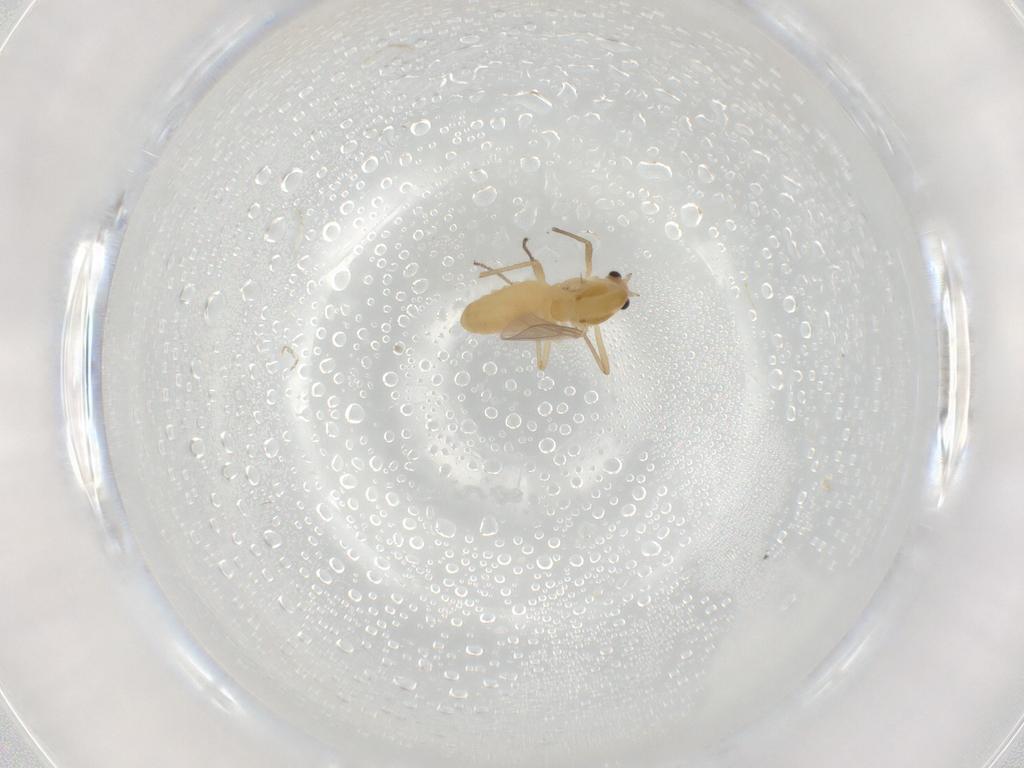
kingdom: Animalia
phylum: Arthropoda
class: Insecta
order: Diptera
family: Chironomidae
